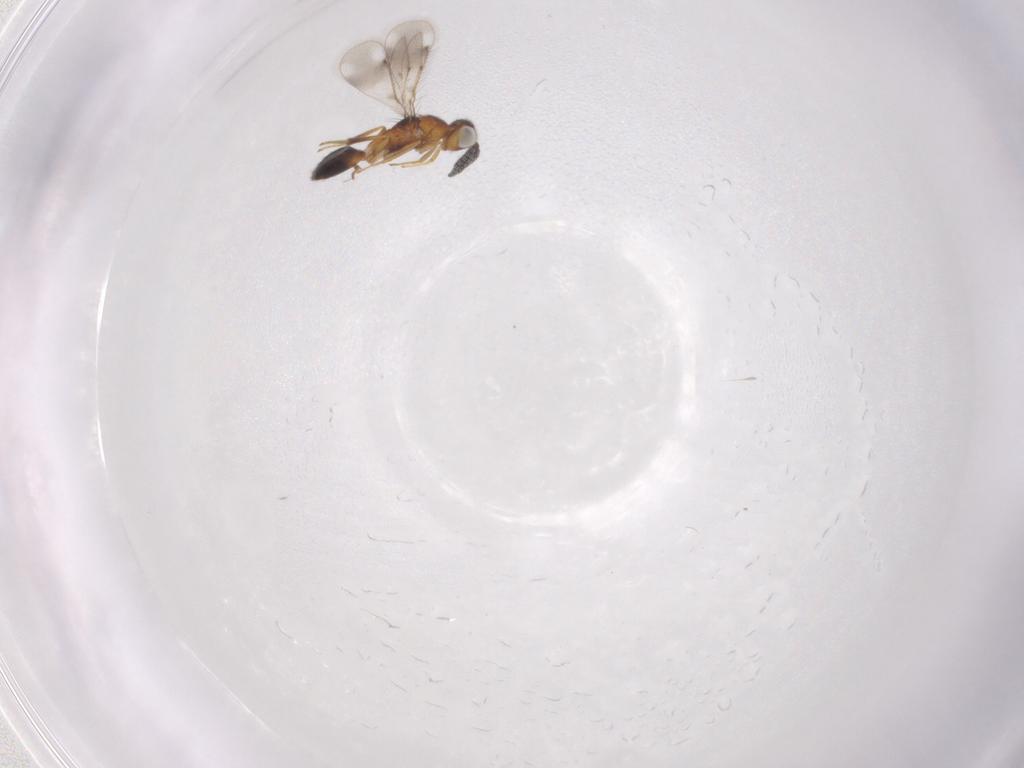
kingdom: Animalia
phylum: Arthropoda
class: Insecta
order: Hymenoptera
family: Pteromalidae
